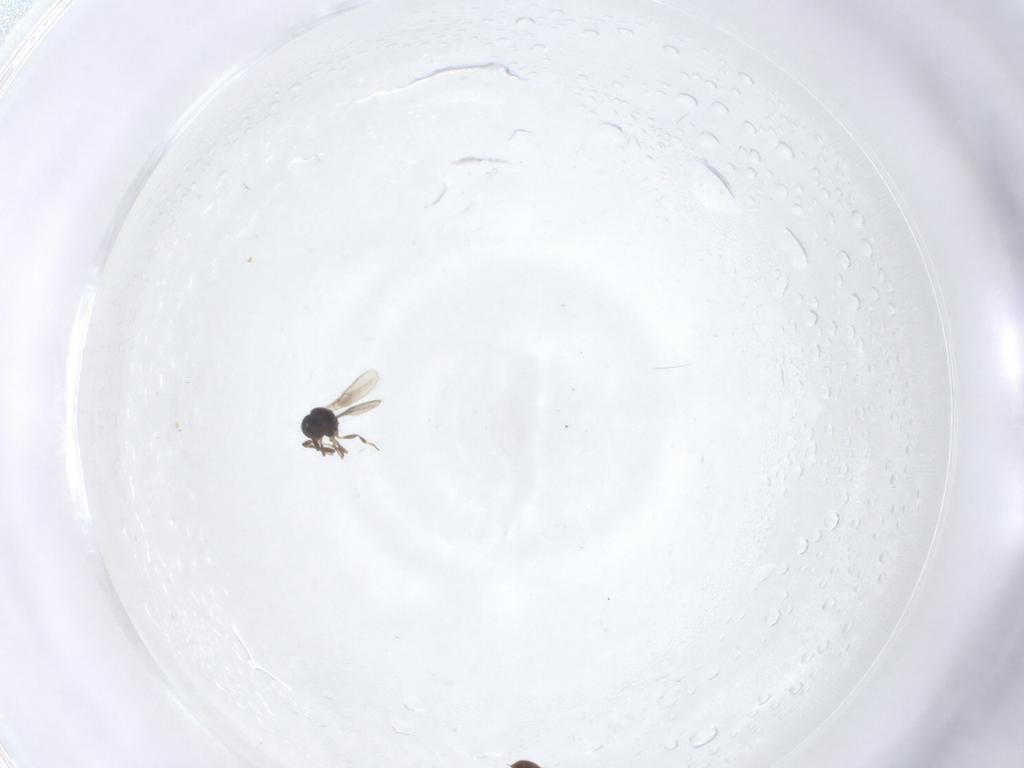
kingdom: Animalia
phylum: Arthropoda
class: Insecta
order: Hymenoptera
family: Scelionidae
